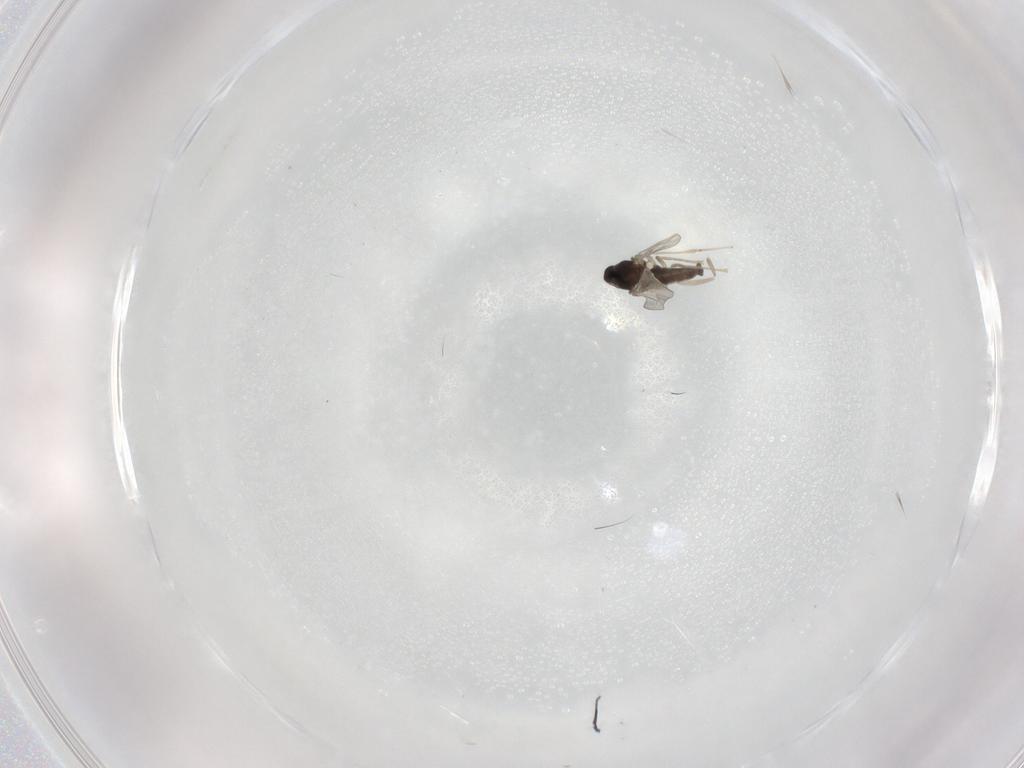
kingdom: Animalia
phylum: Arthropoda
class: Insecta
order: Diptera
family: Cecidomyiidae
